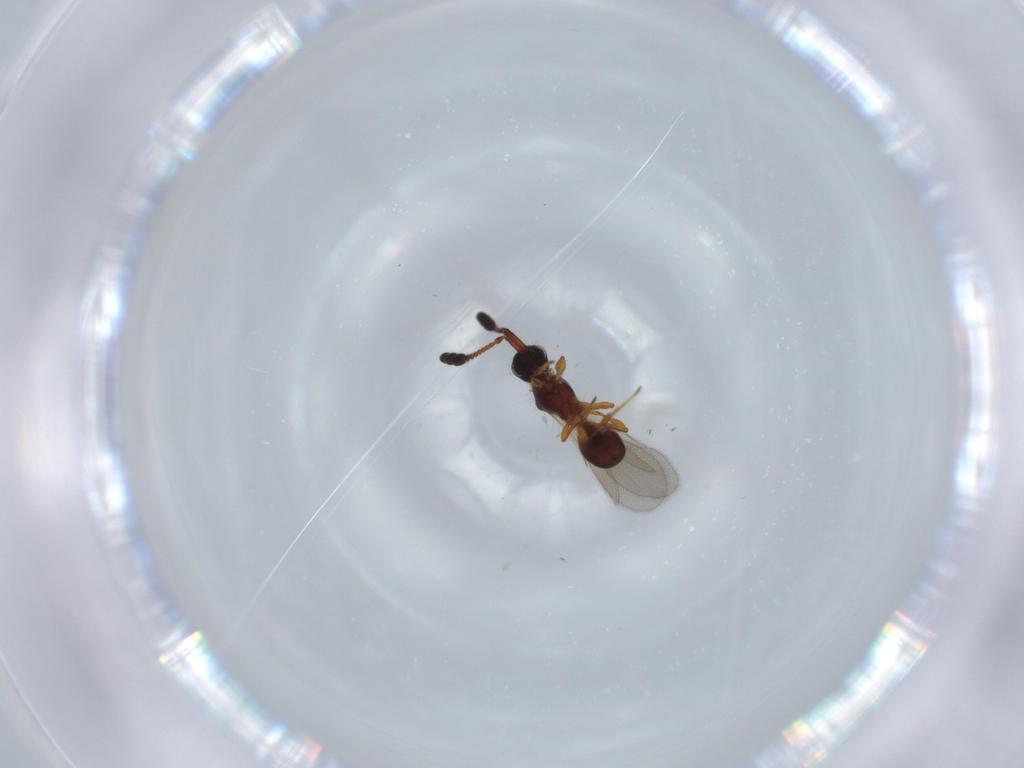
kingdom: Animalia
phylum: Arthropoda
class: Insecta
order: Hymenoptera
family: Diapriidae
